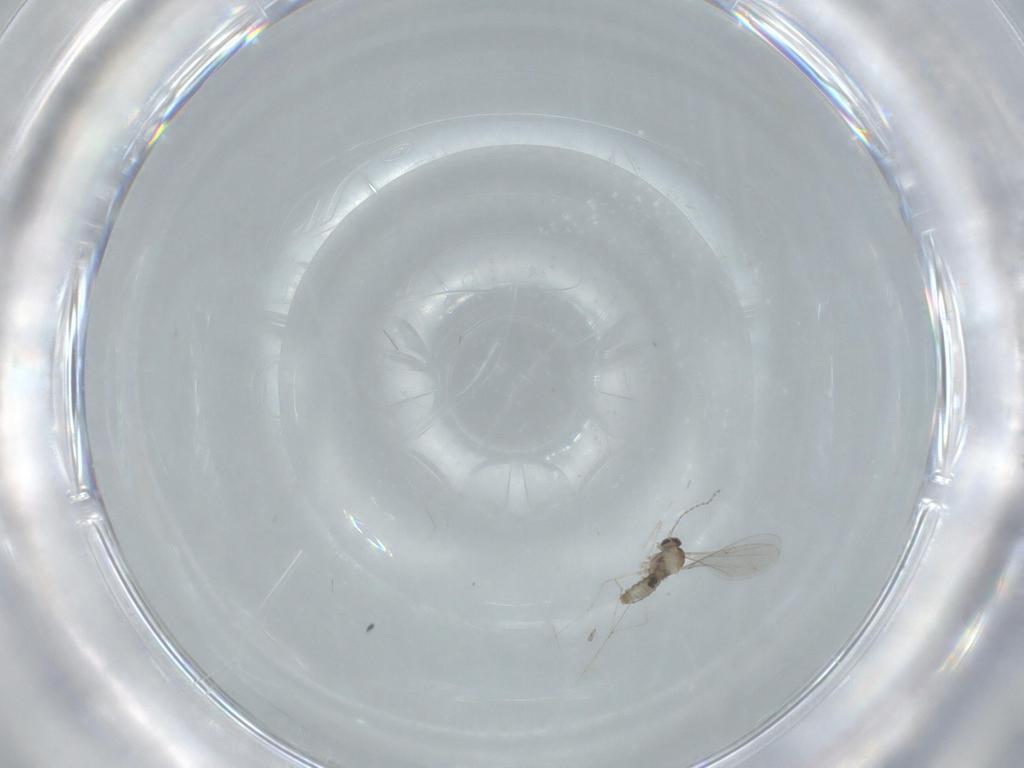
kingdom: Animalia
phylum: Arthropoda
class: Insecta
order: Diptera
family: Cecidomyiidae
